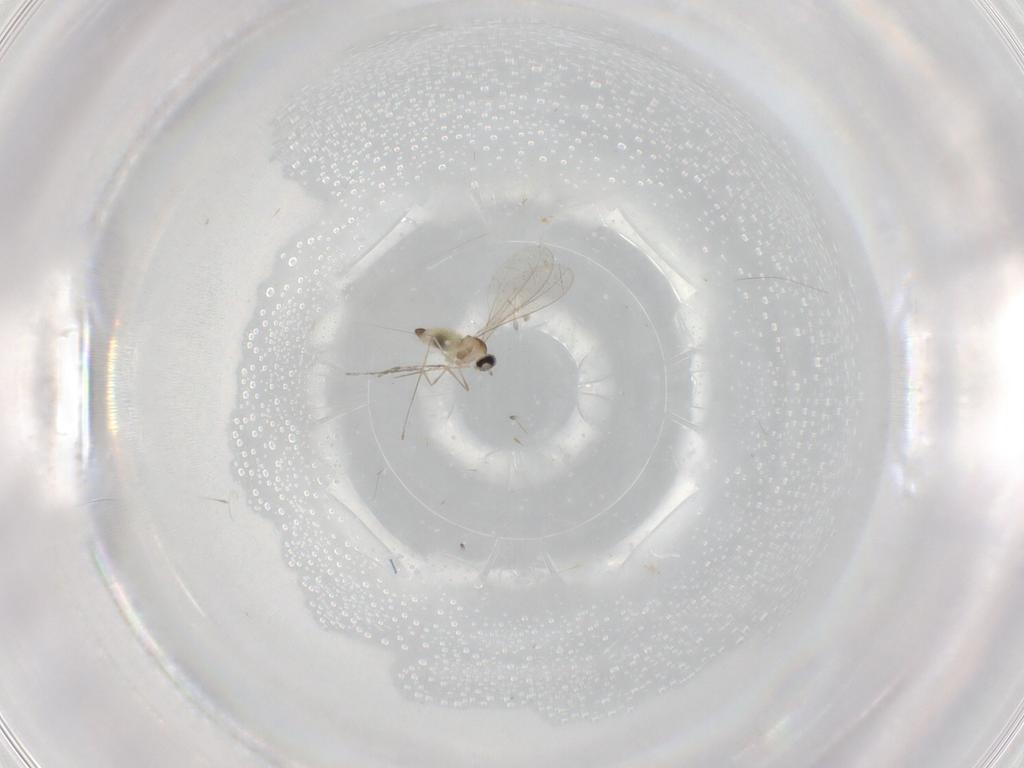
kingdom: Animalia
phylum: Arthropoda
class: Insecta
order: Diptera
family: Cecidomyiidae
